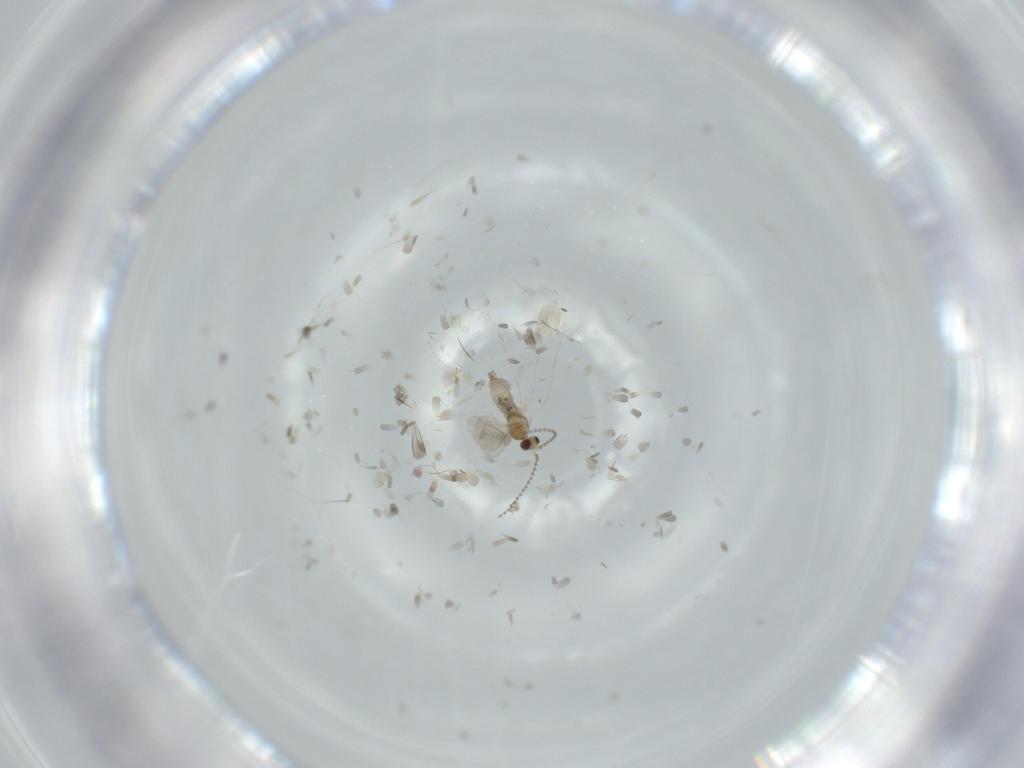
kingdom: Animalia
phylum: Arthropoda
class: Insecta
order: Diptera
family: Cecidomyiidae
